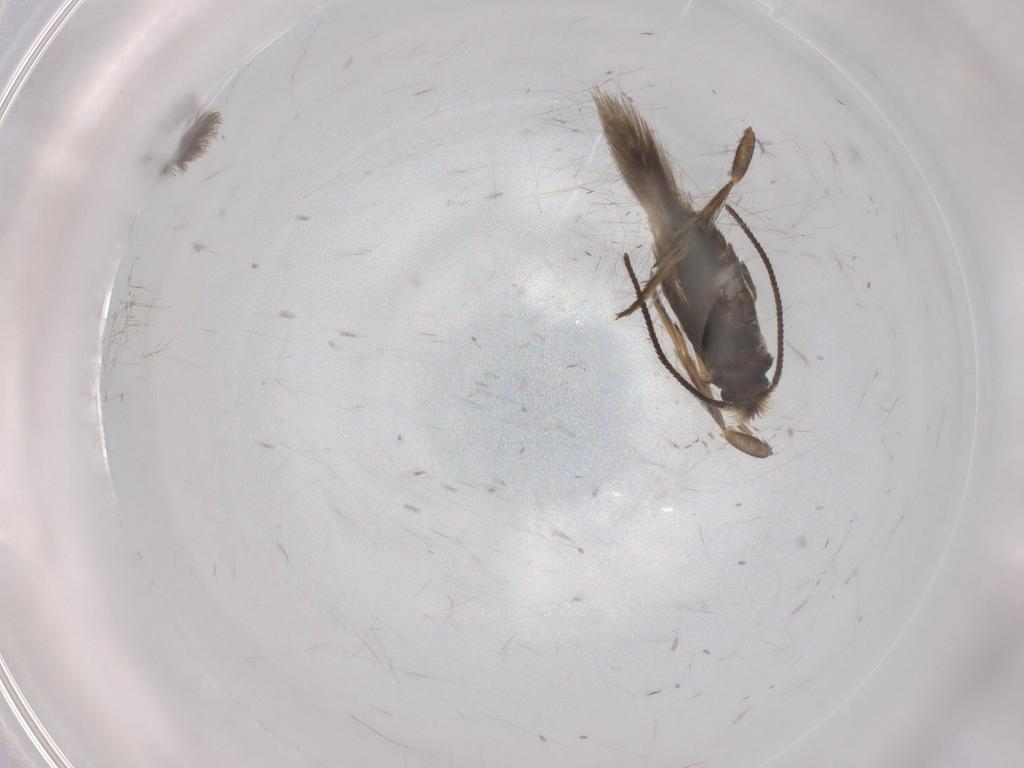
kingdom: Animalia
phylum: Arthropoda
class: Insecta
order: Lepidoptera
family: Nepticulidae
